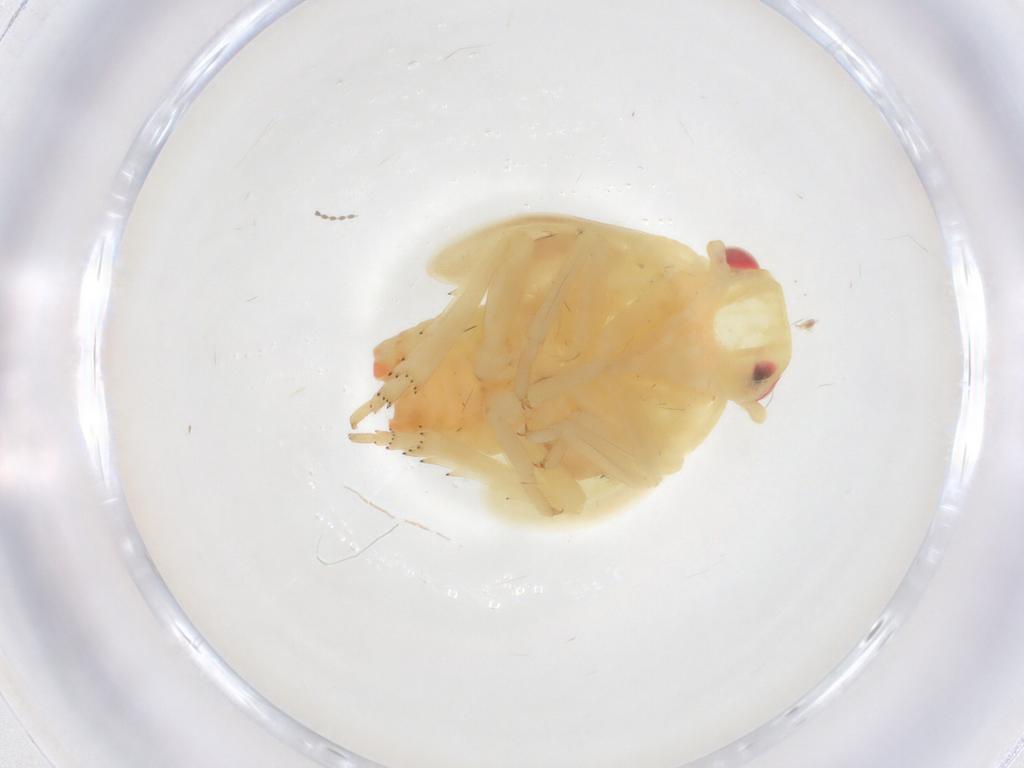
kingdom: Animalia
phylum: Arthropoda
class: Insecta
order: Hemiptera
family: Flatidae
